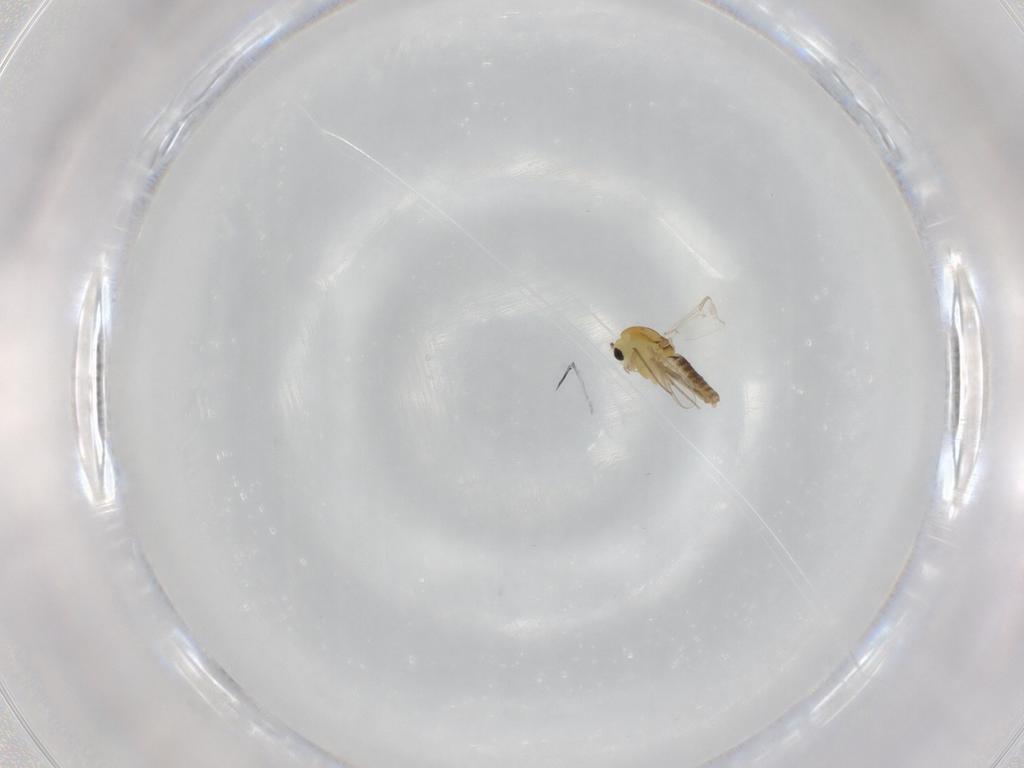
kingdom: Animalia
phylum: Arthropoda
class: Insecta
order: Diptera
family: Chironomidae
